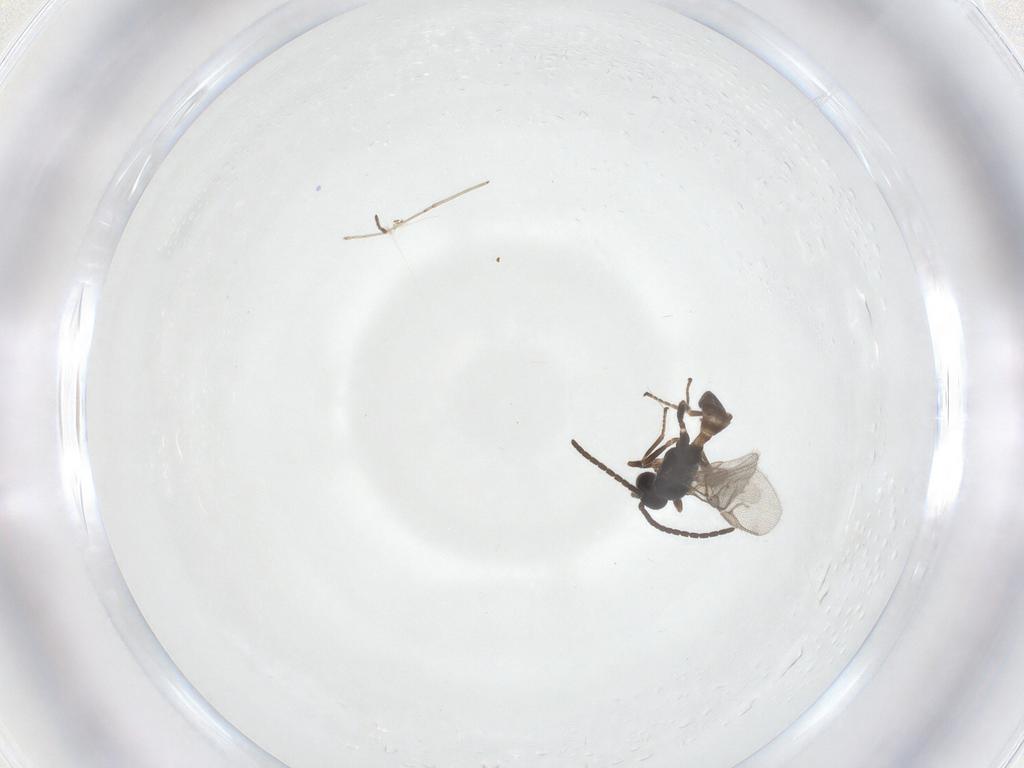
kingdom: Animalia
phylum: Arthropoda
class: Insecta
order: Hymenoptera
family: Braconidae
